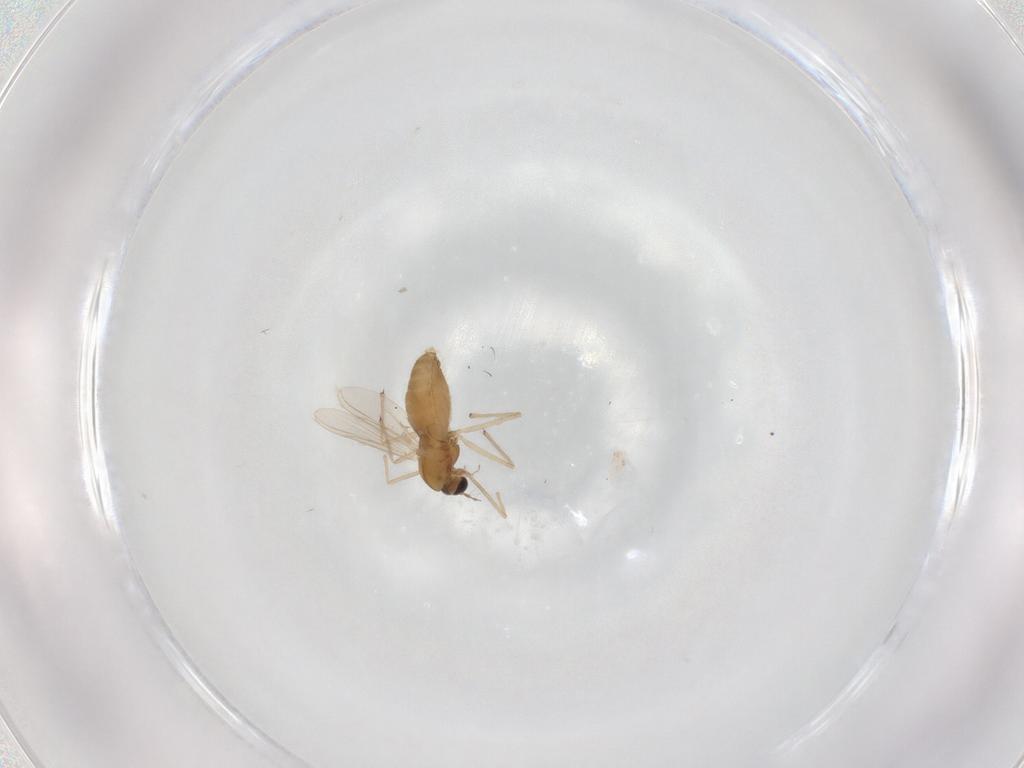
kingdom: Animalia
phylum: Arthropoda
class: Insecta
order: Diptera
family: Chironomidae
